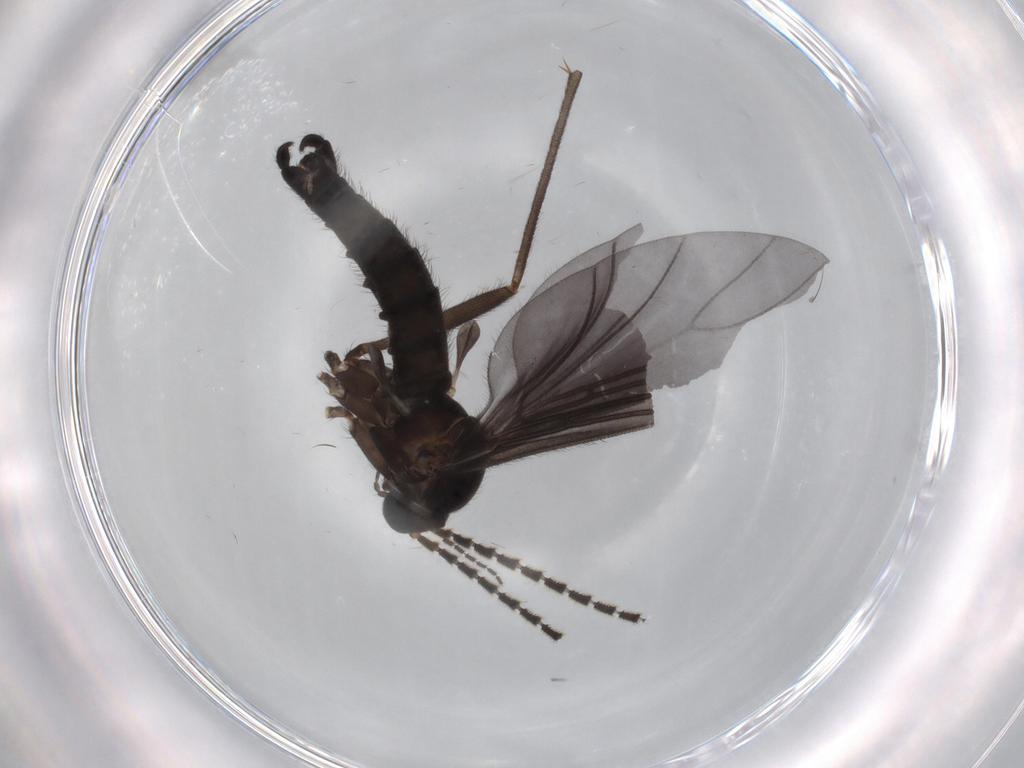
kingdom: Animalia
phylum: Arthropoda
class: Insecta
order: Diptera
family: Phoridae
